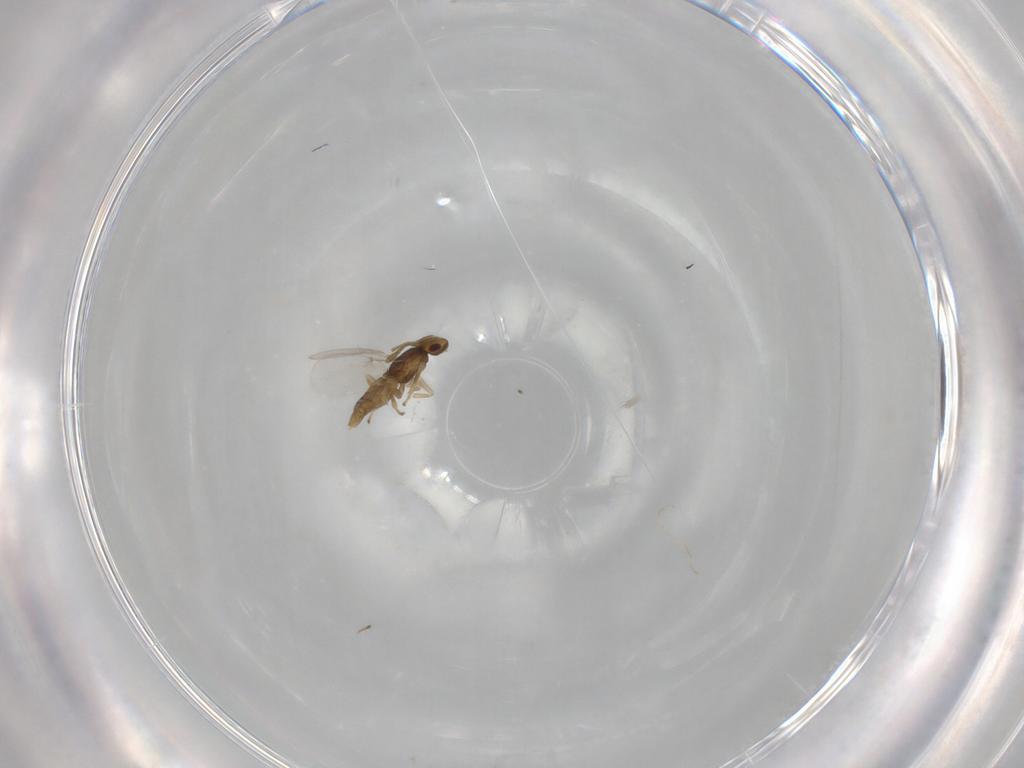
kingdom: Animalia
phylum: Arthropoda
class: Insecta
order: Hymenoptera
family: Encyrtidae
